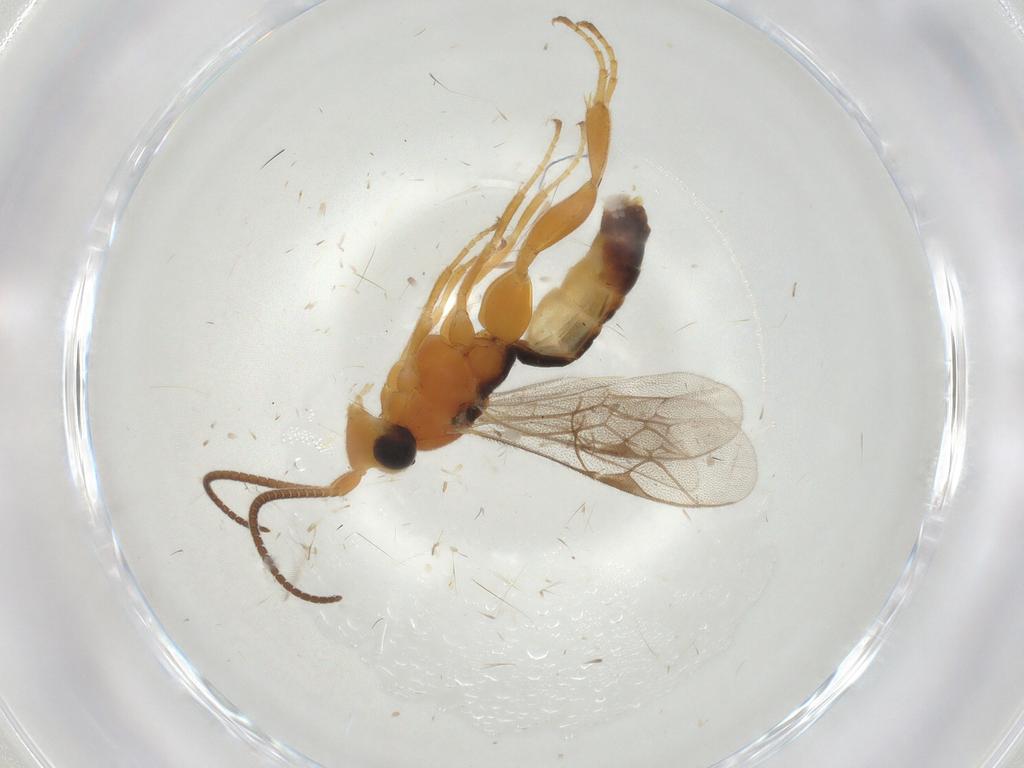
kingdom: Animalia
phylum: Arthropoda
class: Insecta
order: Hymenoptera
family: Ichneumonidae
